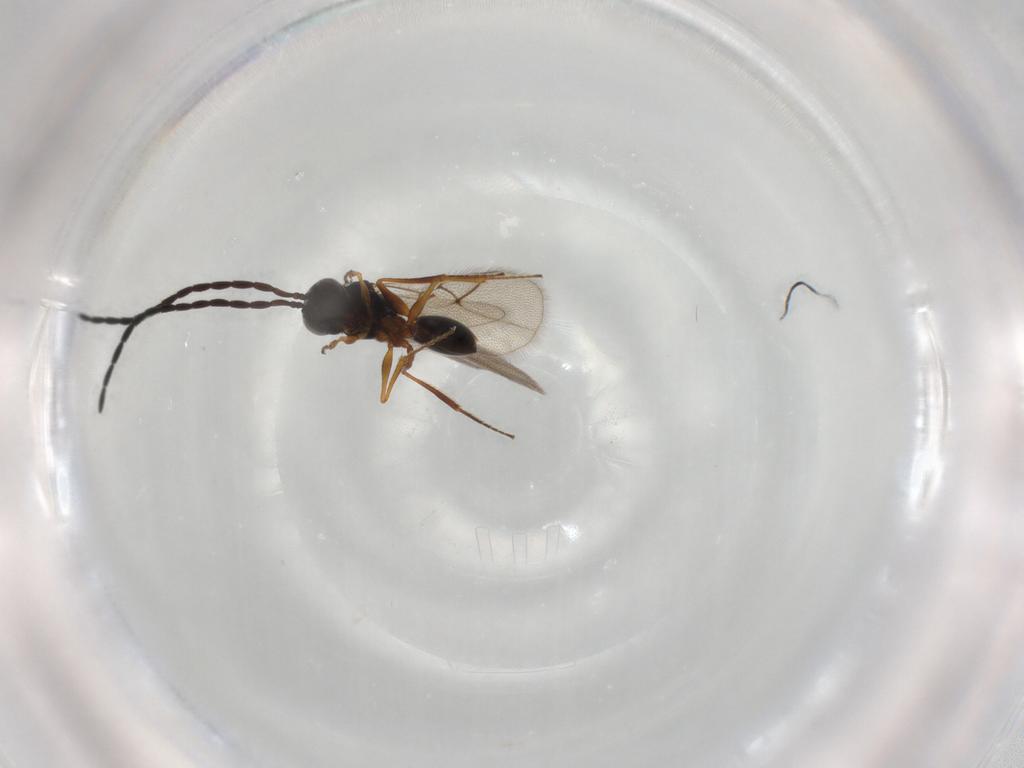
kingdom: Animalia
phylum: Arthropoda
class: Insecta
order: Hymenoptera
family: Figitidae
